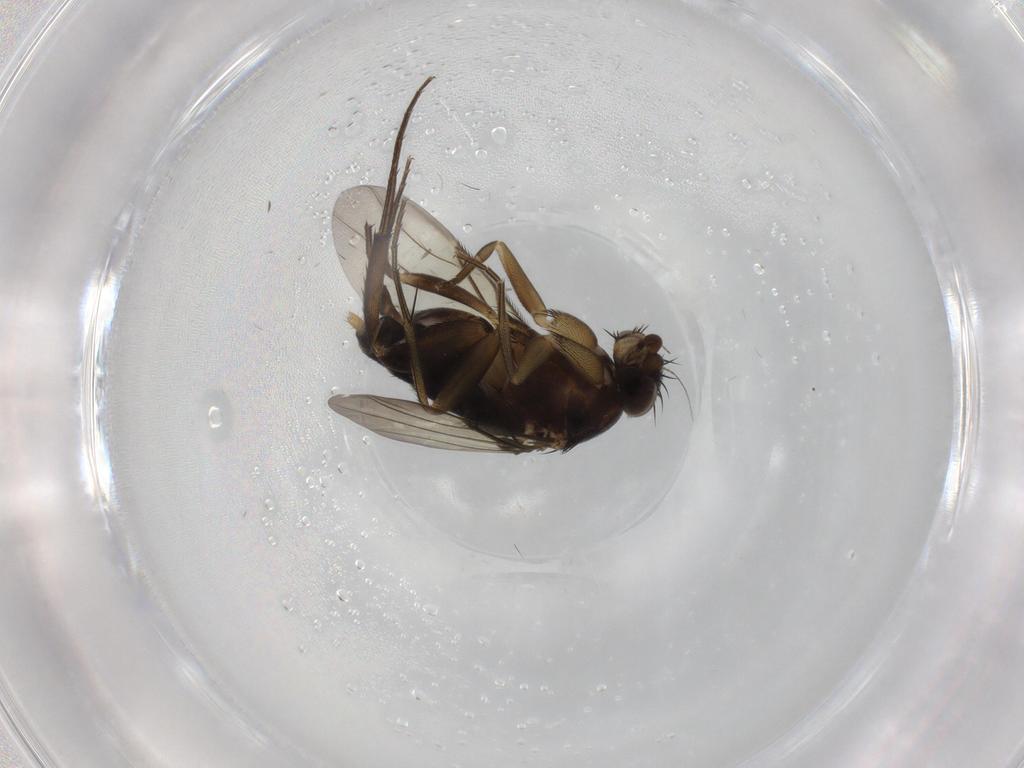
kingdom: Animalia
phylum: Arthropoda
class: Insecta
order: Diptera
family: Phoridae
